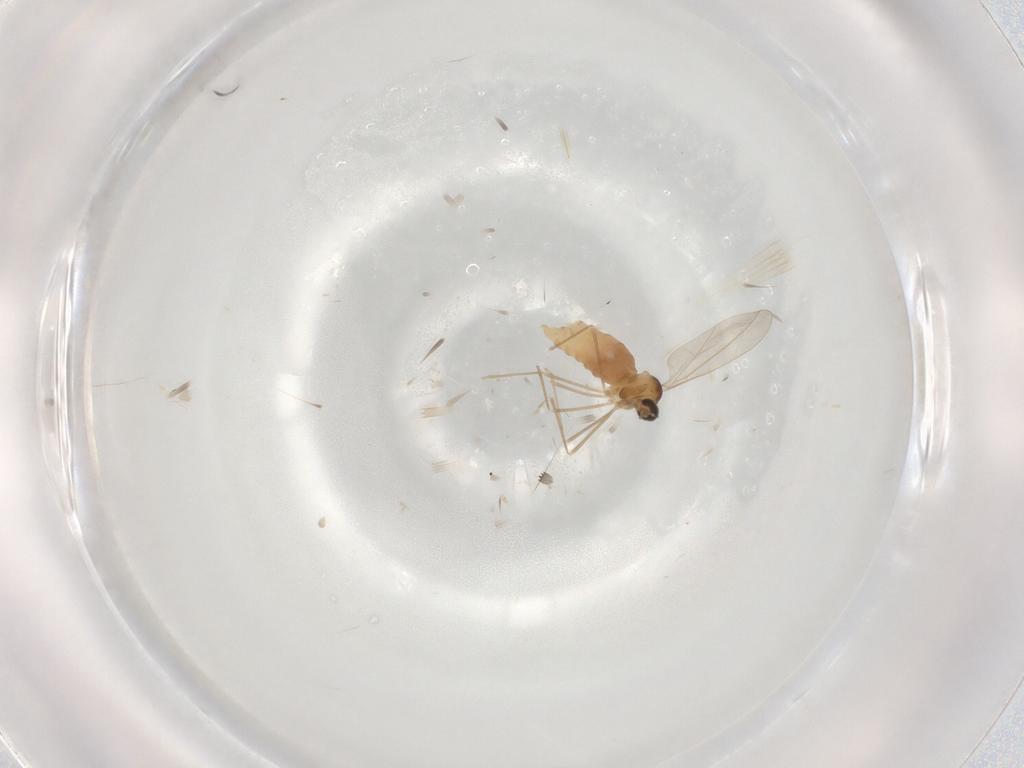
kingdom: Animalia
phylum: Arthropoda
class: Insecta
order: Diptera
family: Cecidomyiidae
